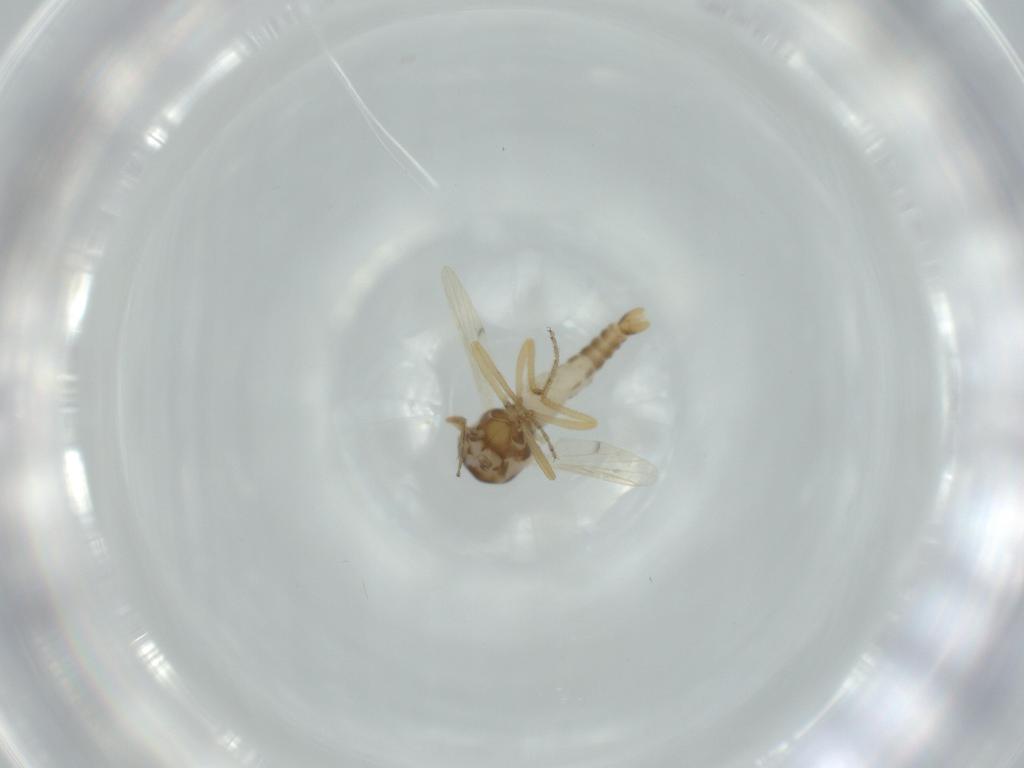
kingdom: Animalia
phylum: Arthropoda
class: Insecta
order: Diptera
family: Ceratopogonidae
